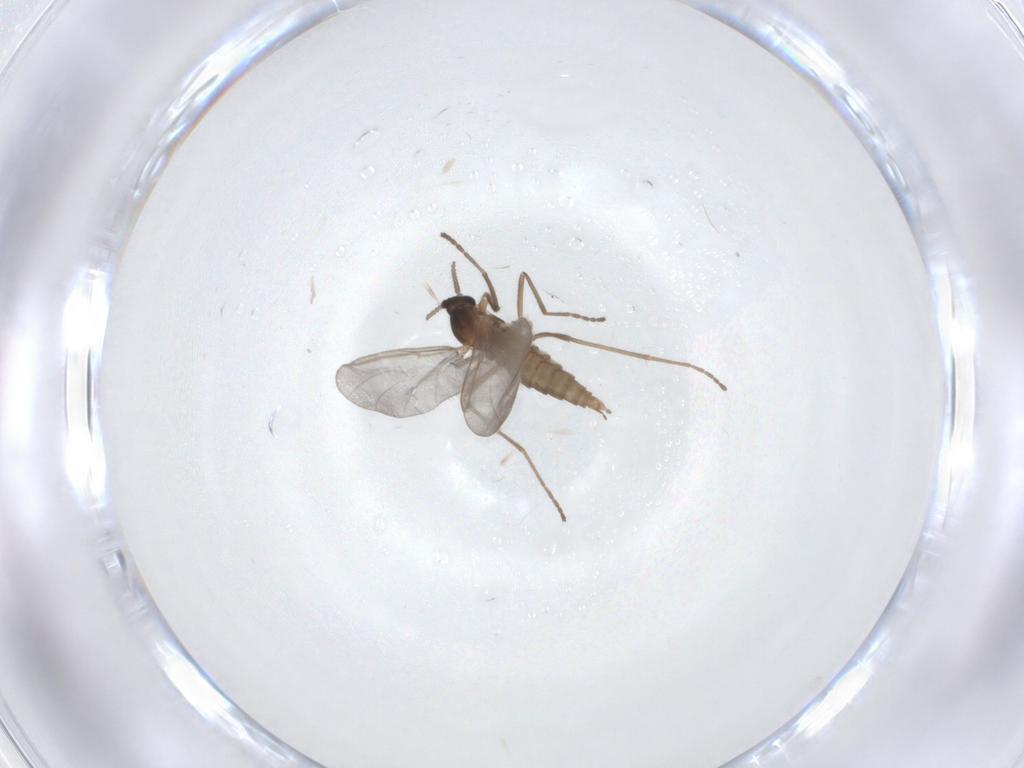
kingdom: Animalia
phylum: Arthropoda
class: Insecta
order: Diptera
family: Cecidomyiidae
